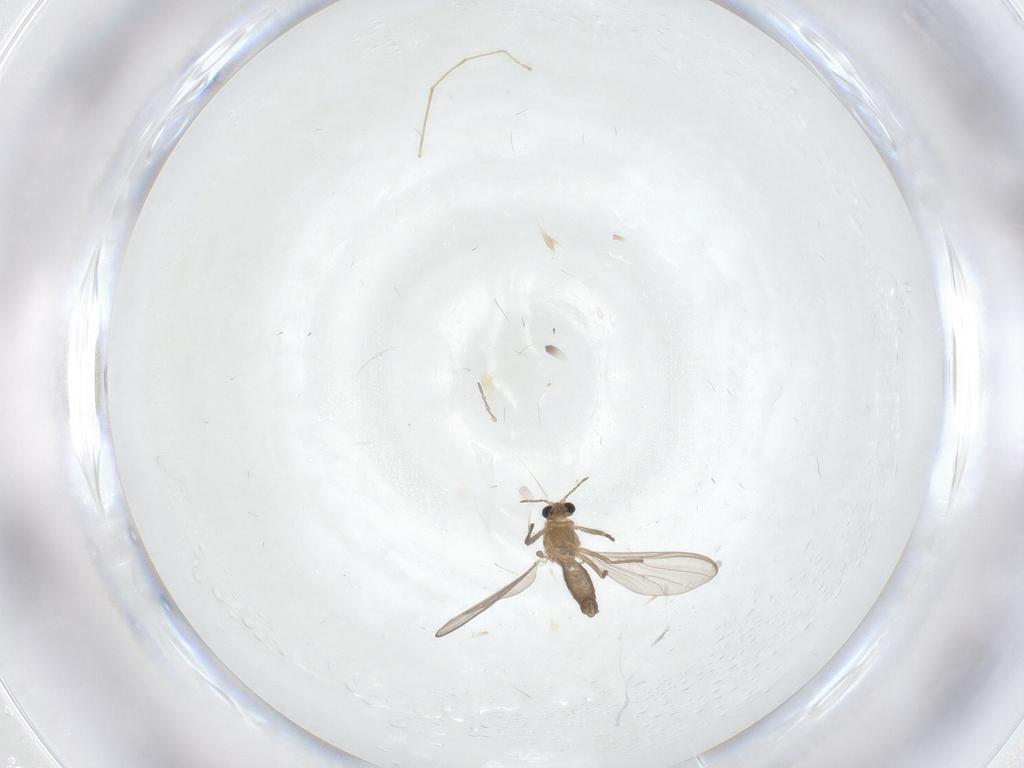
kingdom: Animalia
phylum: Arthropoda
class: Insecta
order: Diptera
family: Chironomidae
